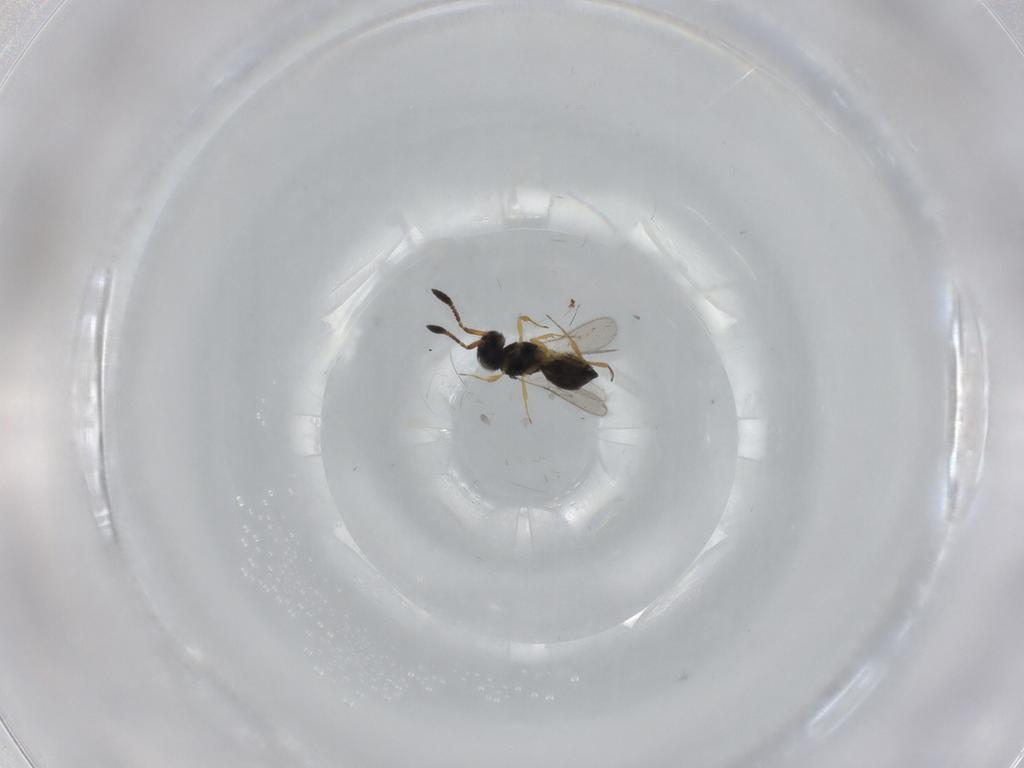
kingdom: Animalia
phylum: Arthropoda
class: Insecta
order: Hymenoptera
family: Scelionidae
